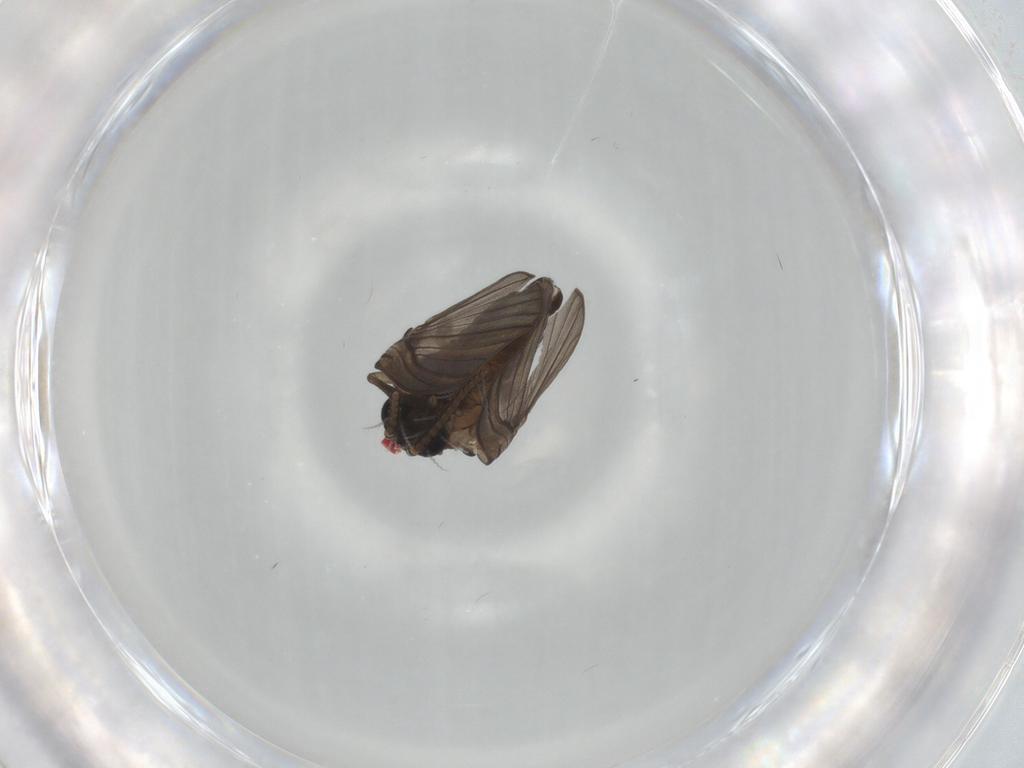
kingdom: Animalia
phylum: Arthropoda
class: Insecta
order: Diptera
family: Psychodidae
